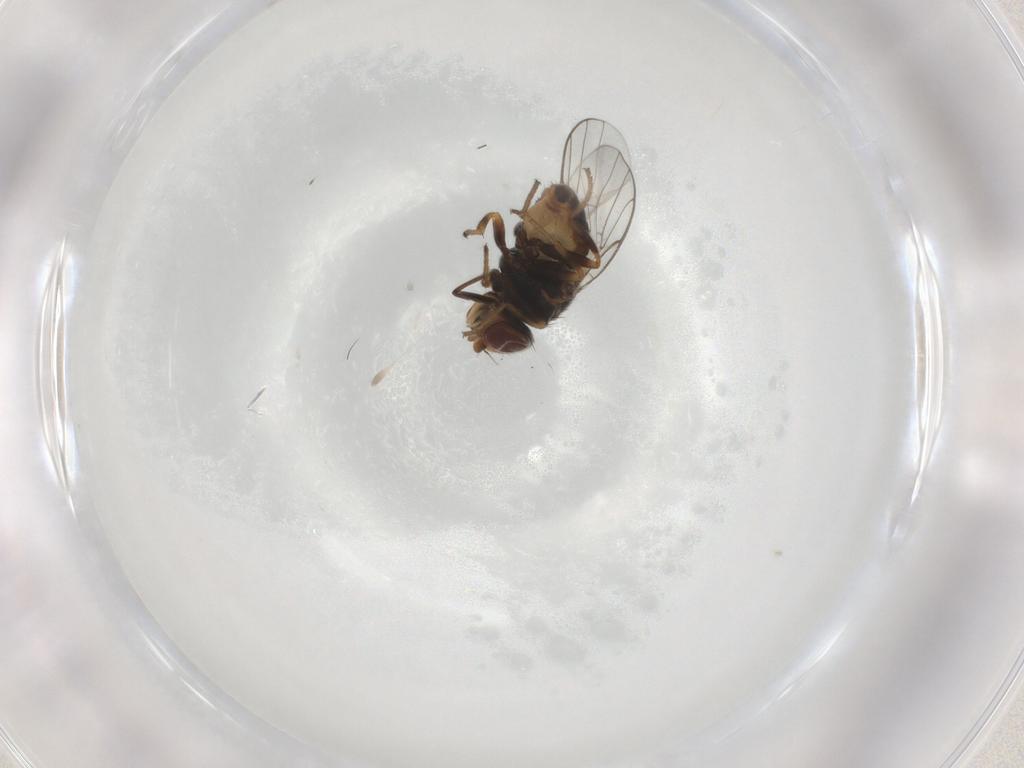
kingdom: Animalia
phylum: Arthropoda
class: Insecta
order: Diptera
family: Chloropidae
